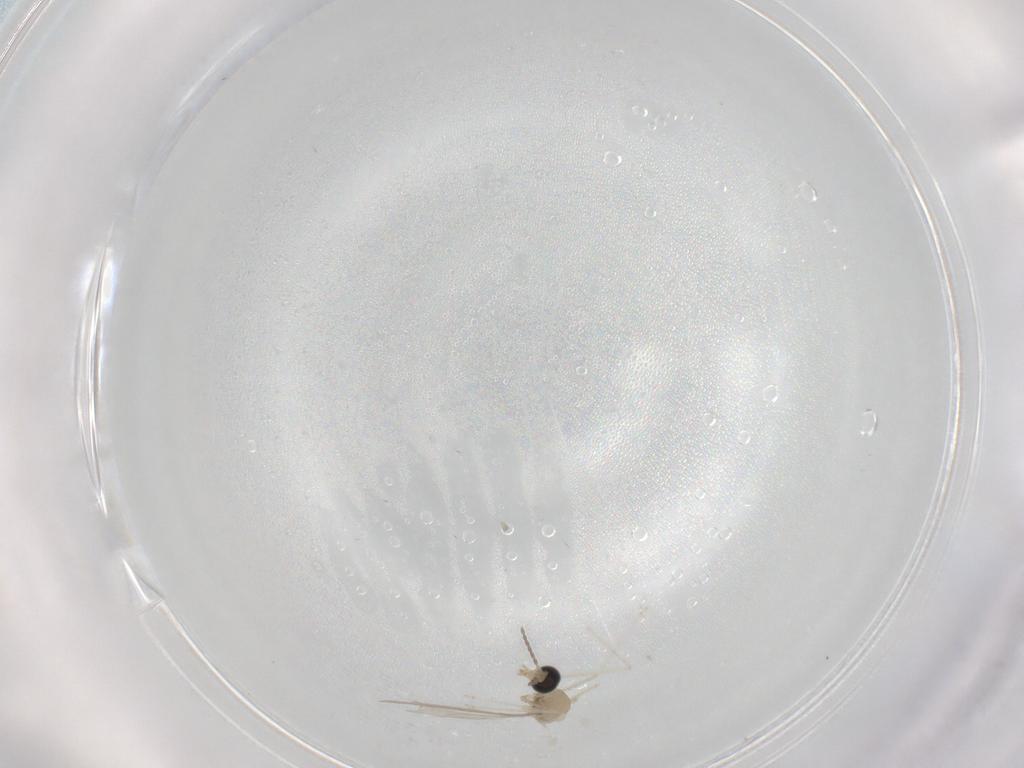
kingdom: Animalia
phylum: Arthropoda
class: Insecta
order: Diptera
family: Cecidomyiidae
